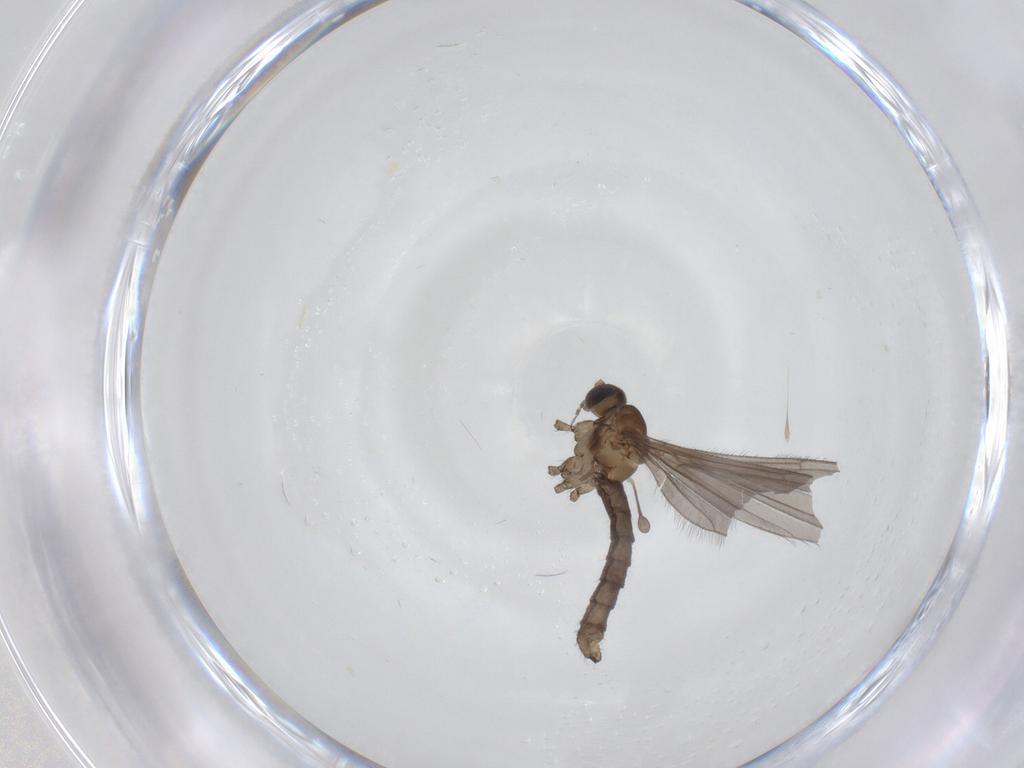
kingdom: Animalia
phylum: Arthropoda
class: Insecta
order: Diptera
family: Limoniidae
